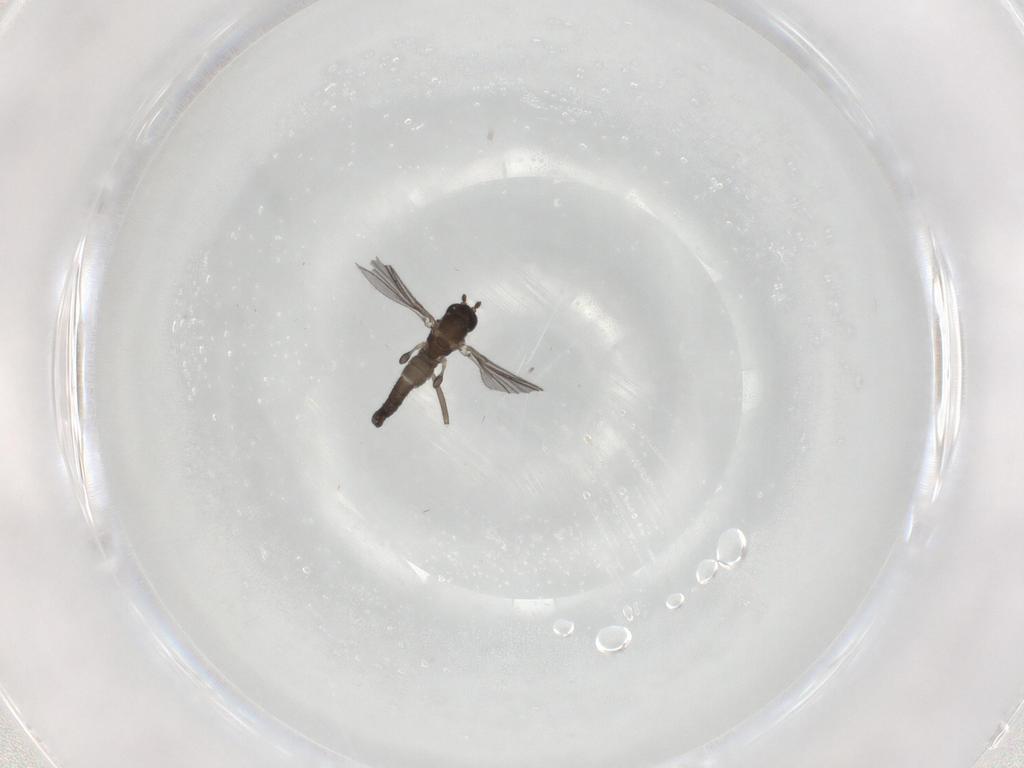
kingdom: Animalia
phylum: Arthropoda
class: Insecta
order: Diptera
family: Sciaridae
